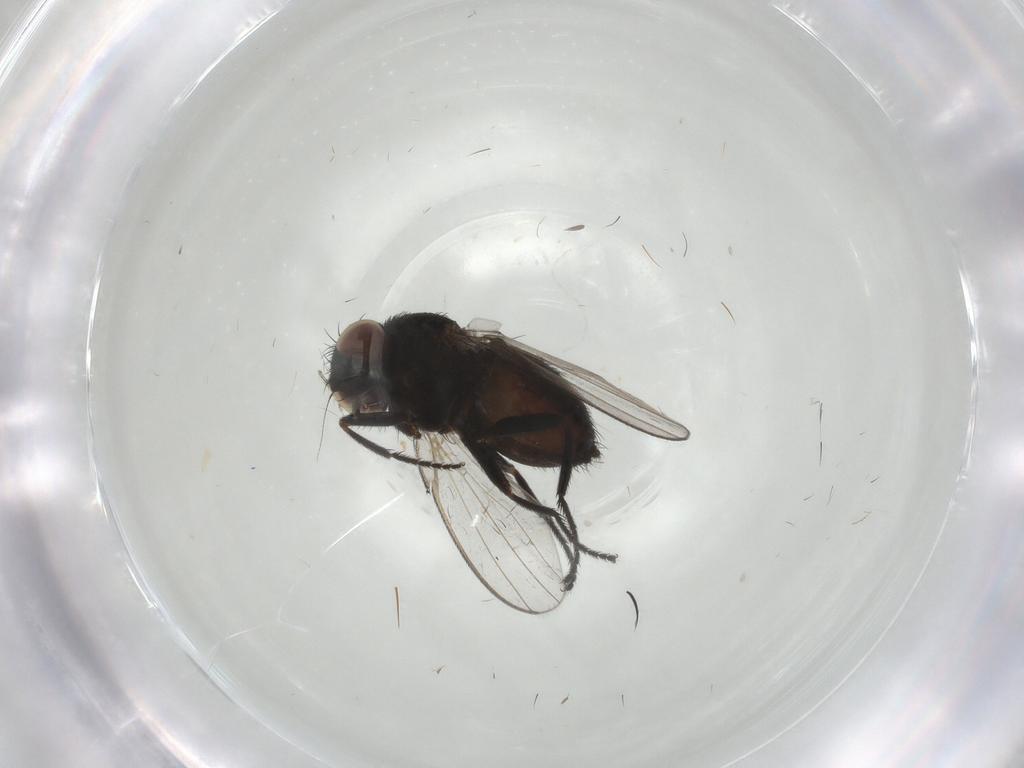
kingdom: Animalia
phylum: Arthropoda
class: Insecta
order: Diptera
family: Milichiidae
